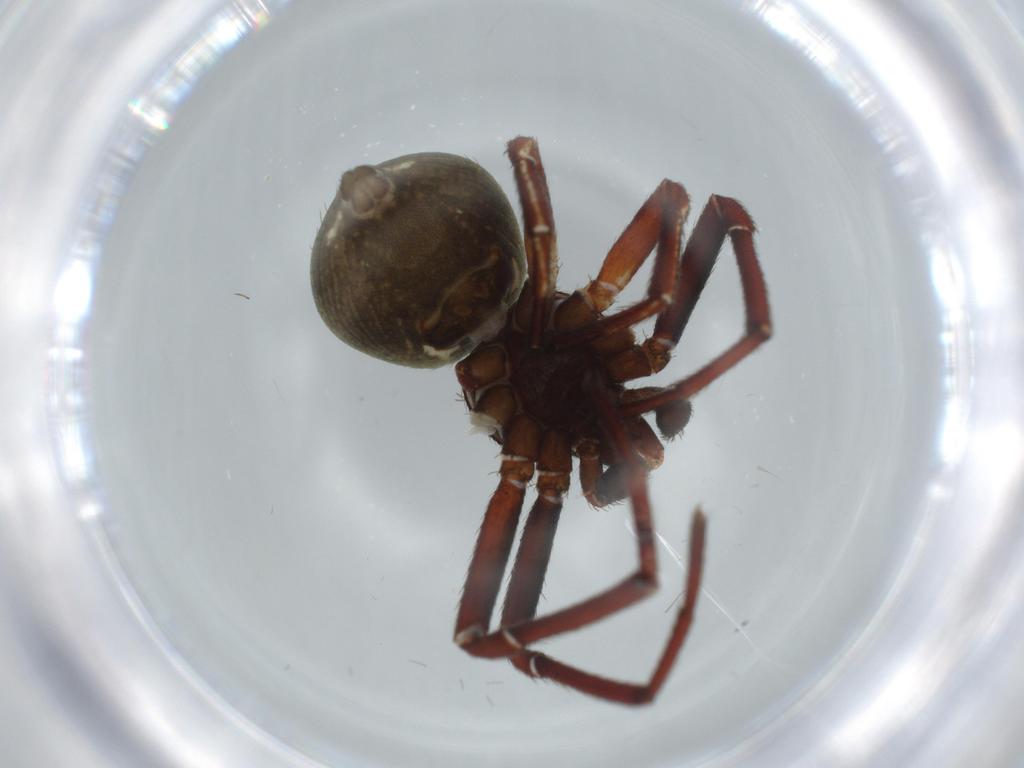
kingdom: Animalia
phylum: Arthropoda
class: Arachnida
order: Araneae
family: Thomisidae
